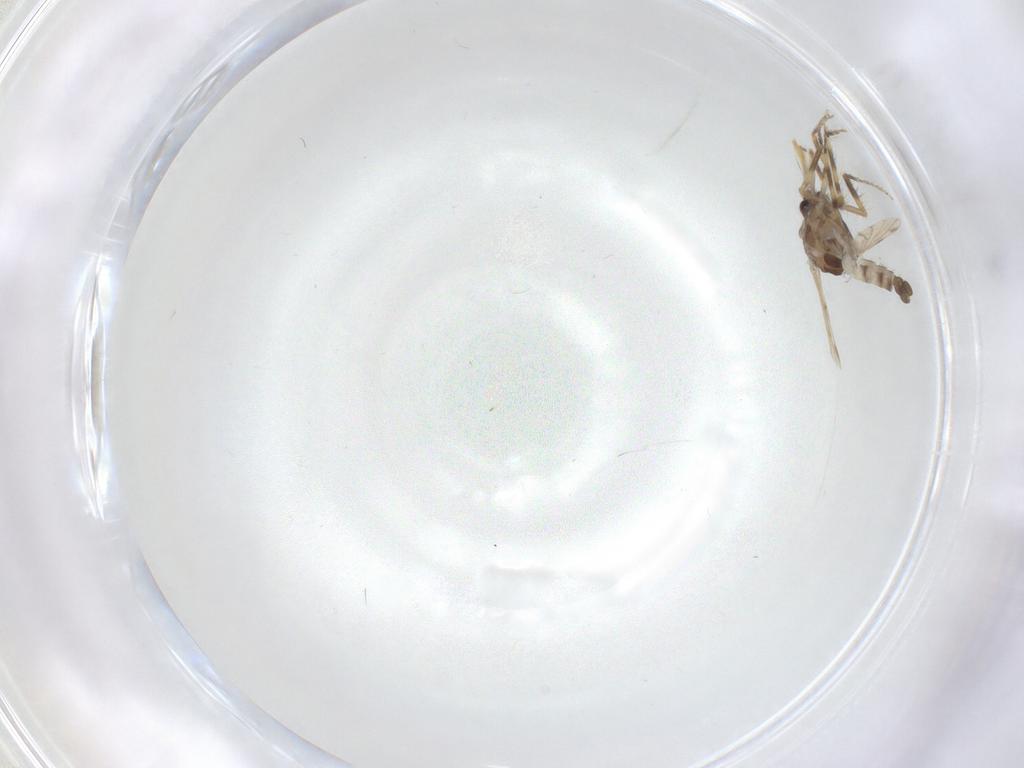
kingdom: Animalia
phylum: Arthropoda
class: Insecta
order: Diptera
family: Ceratopogonidae
